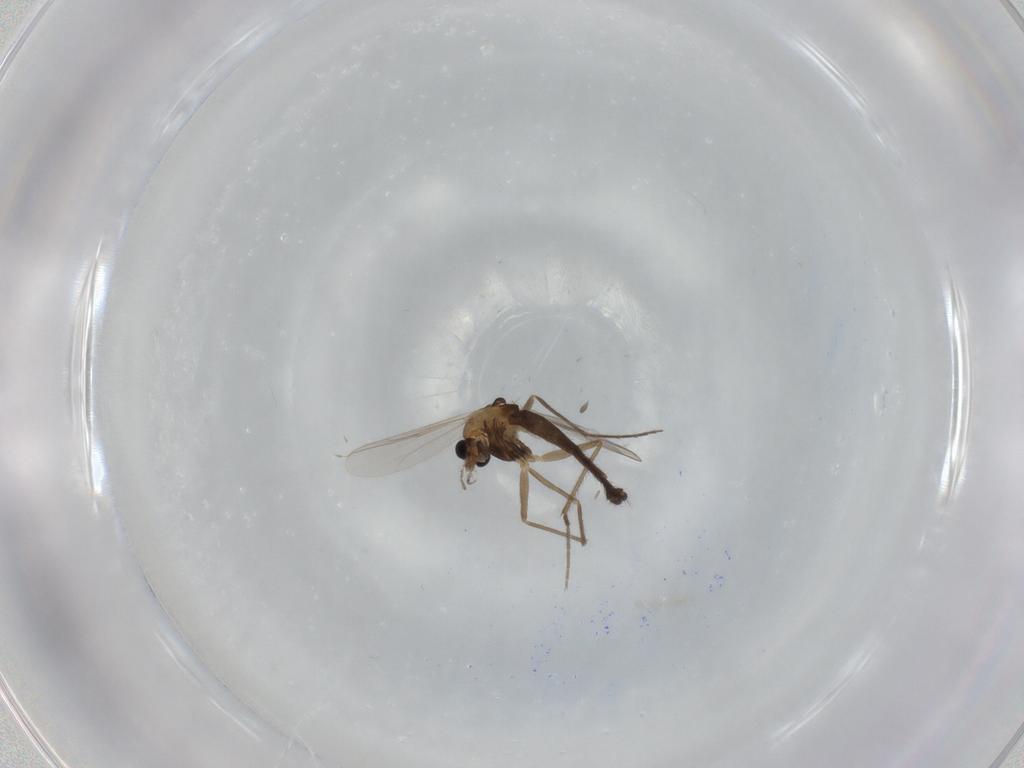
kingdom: Animalia
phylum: Arthropoda
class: Insecta
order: Diptera
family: Chironomidae
